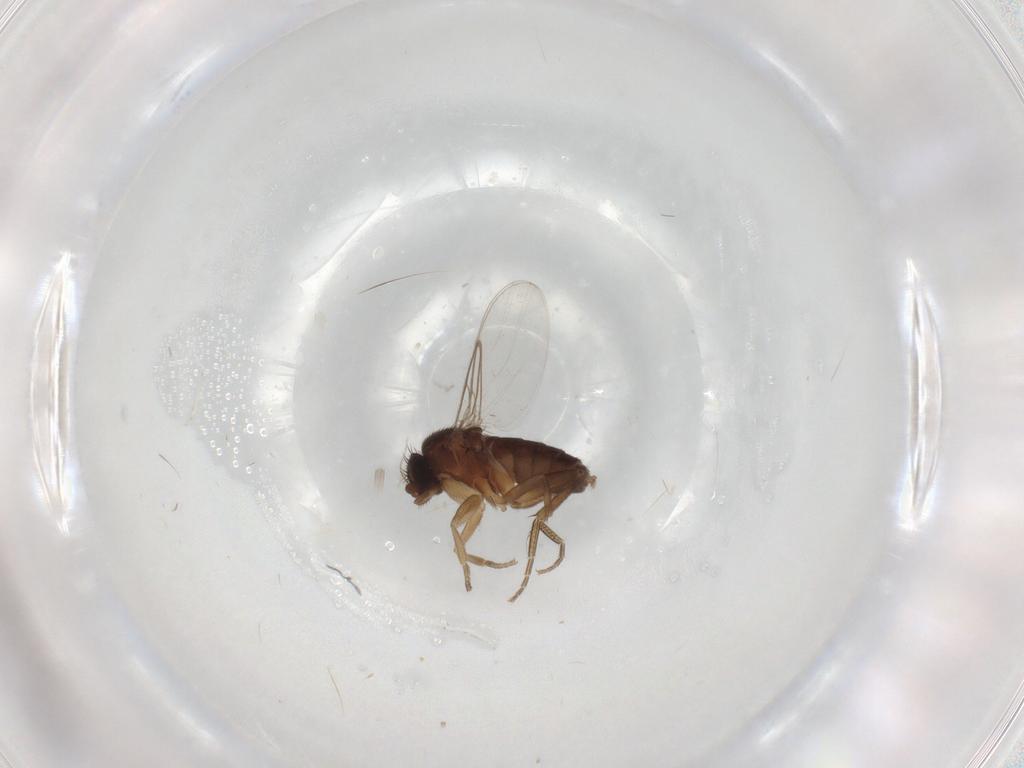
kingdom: Animalia
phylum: Arthropoda
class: Insecta
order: Diptera
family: Phoridae
